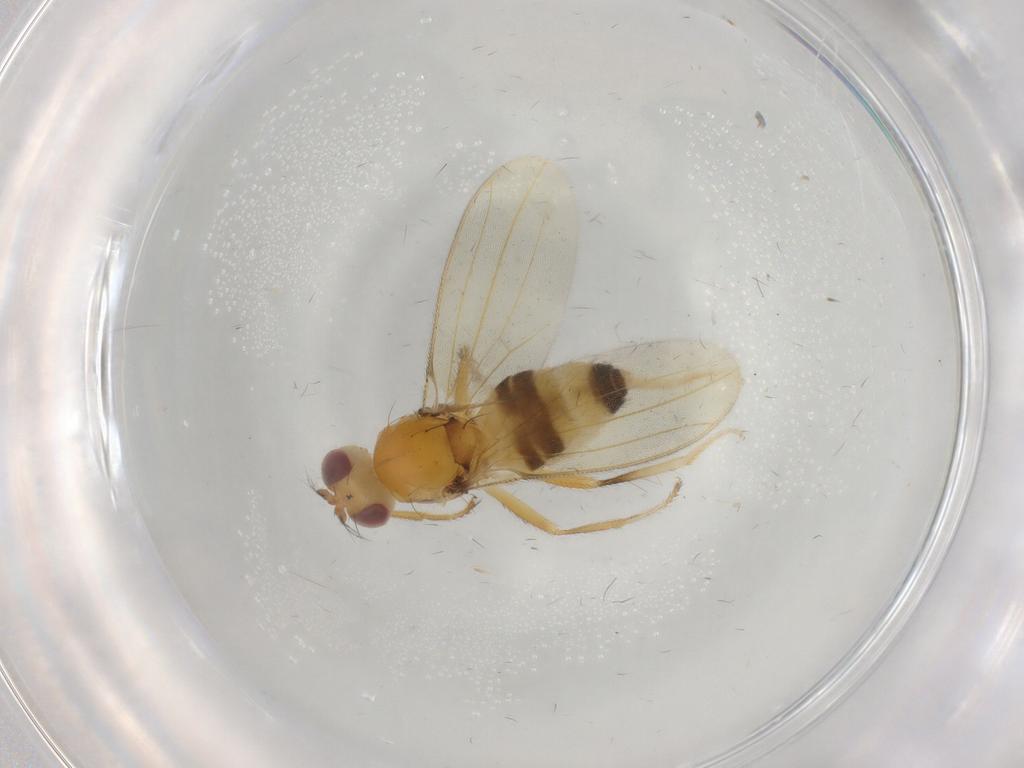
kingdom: Animalia
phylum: Arthropoda
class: Insecta
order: Diptera
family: Periscelididae
